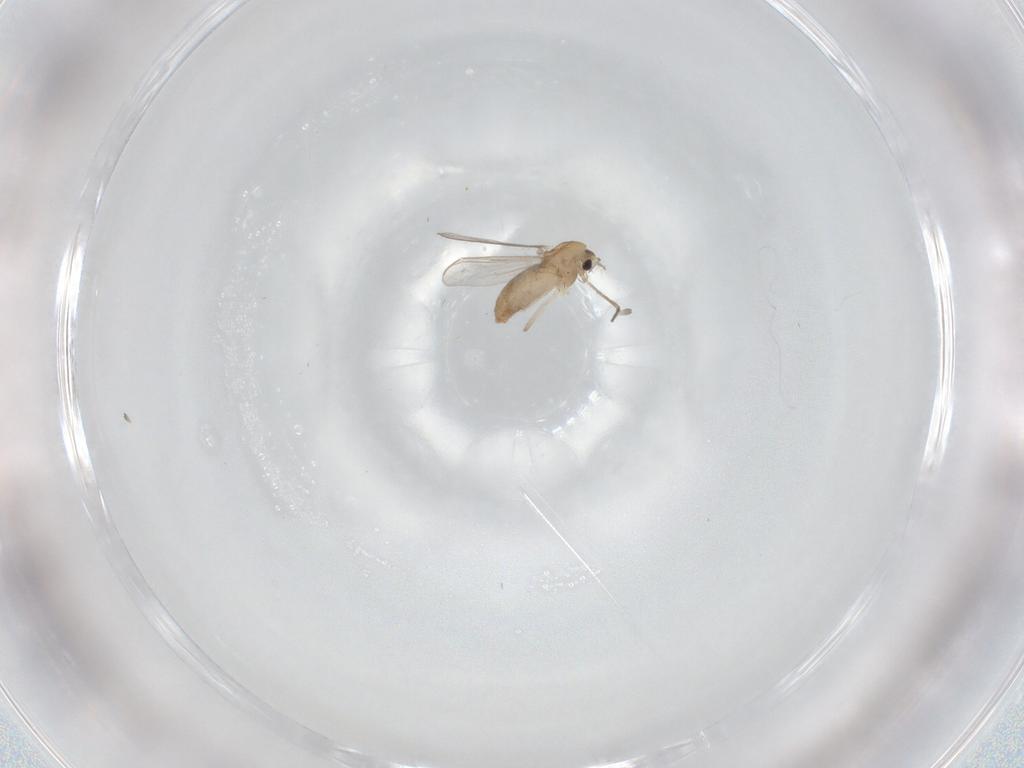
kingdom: Animalia
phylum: Arthropoda
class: Insecta
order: Diptera
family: Chironomidae
